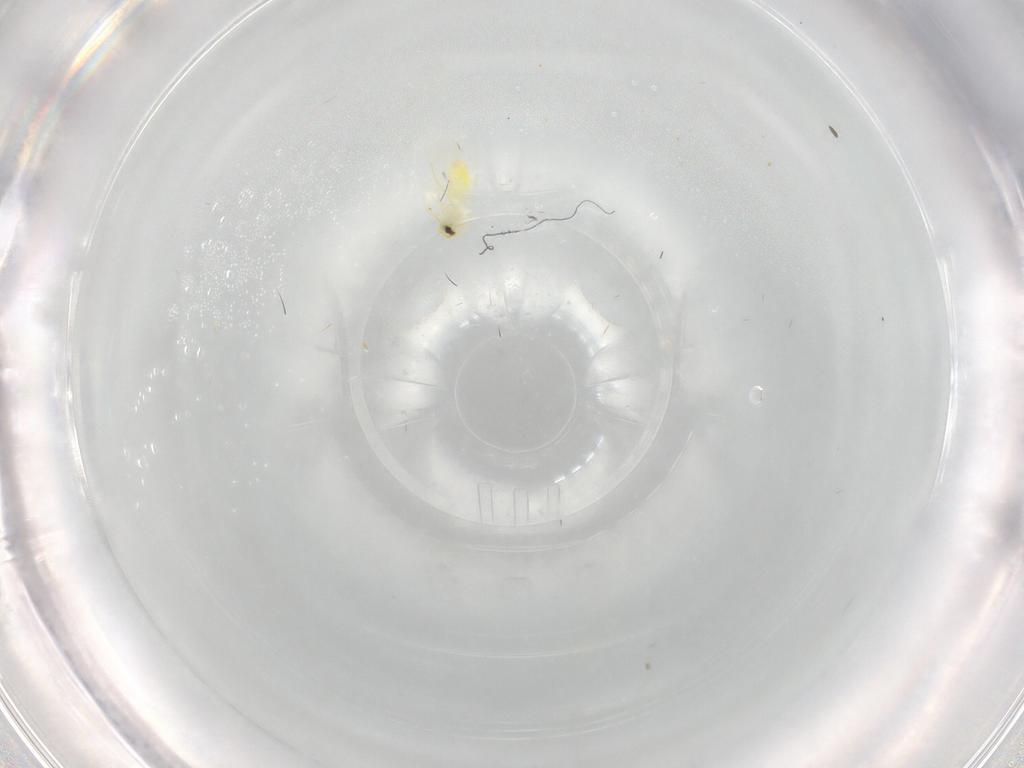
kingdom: Animalia
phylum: Arthropoda
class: Insecta
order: Hemiptera
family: Aleyrodidae
